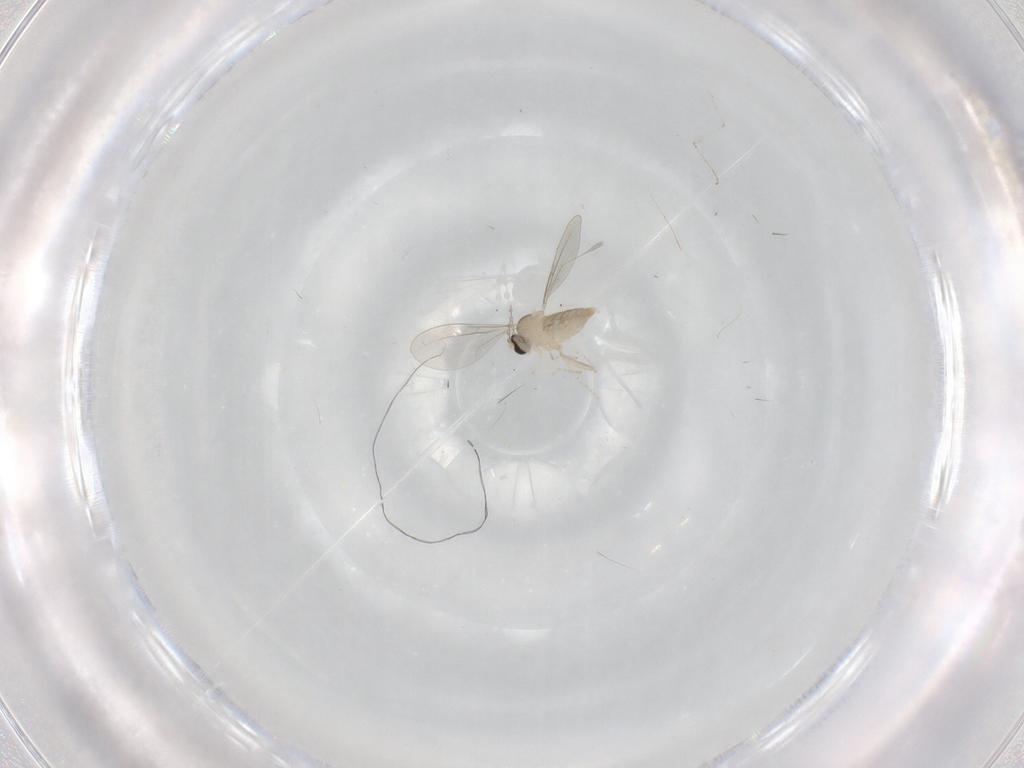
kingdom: Animalia
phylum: Arthropoda
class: Insecta
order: Diptera
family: Cecidomyiidae
